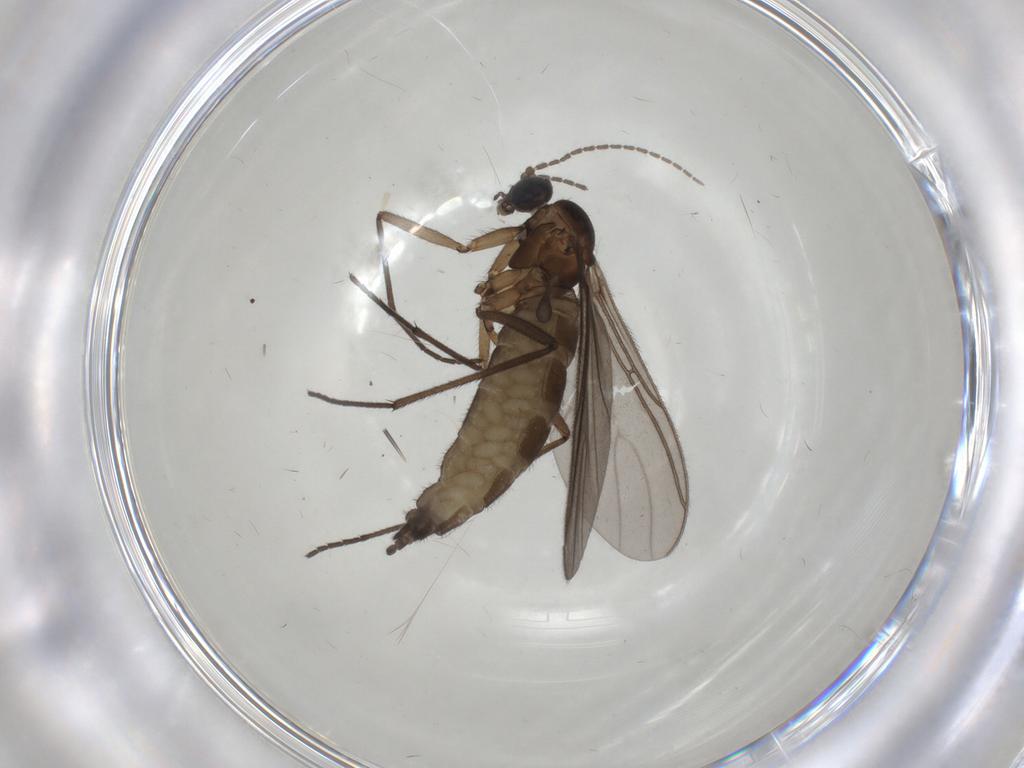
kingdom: Animalia
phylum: Arthropoda
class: Insecta
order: Diptera
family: Sciaridae
